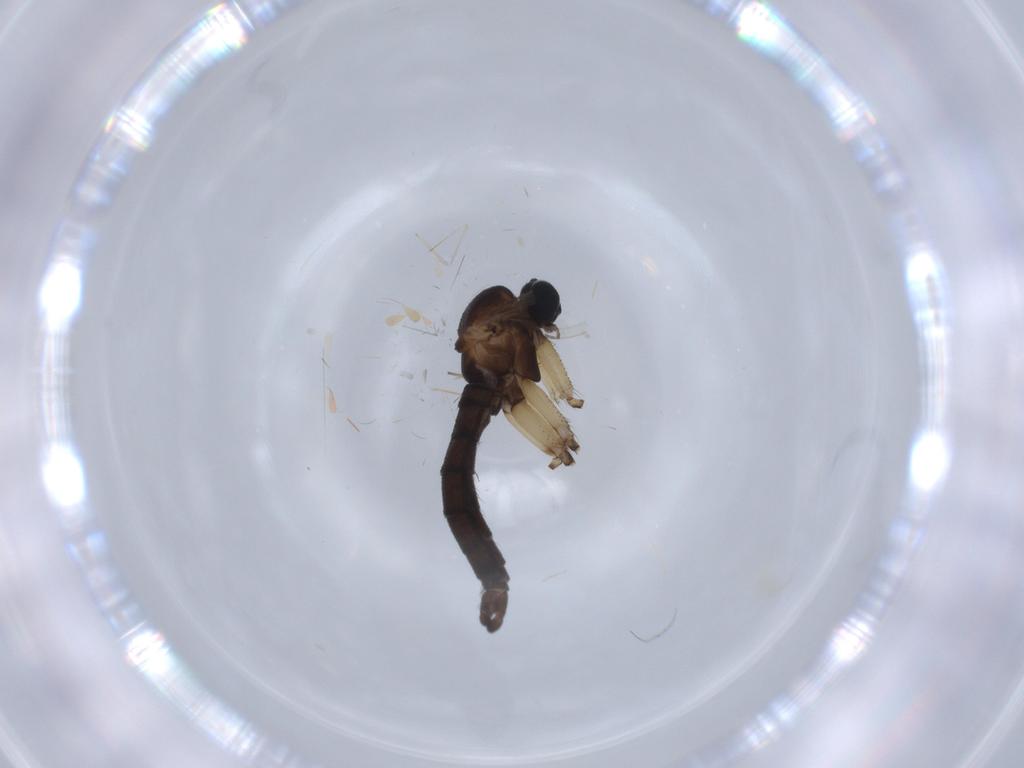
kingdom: Animalia
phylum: Arthropoda
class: Insecta
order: Diptera
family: Sciaridae
